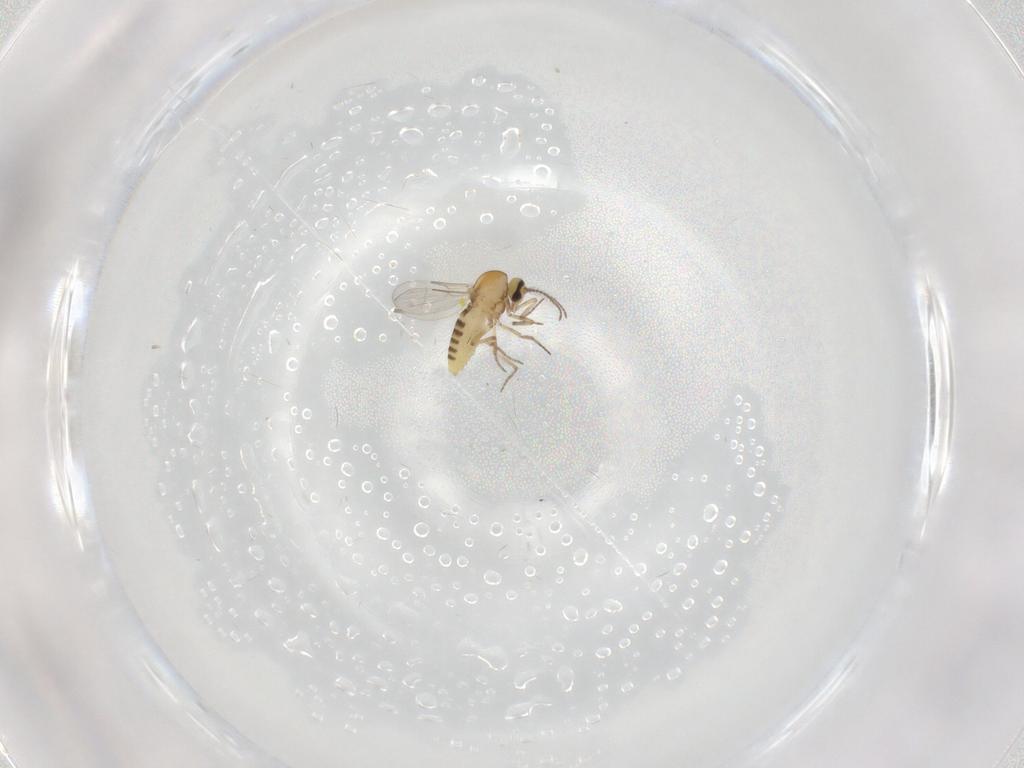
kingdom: Animalia
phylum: Arthropoda
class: Insecta
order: Diptera
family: Ceratopogonidae
